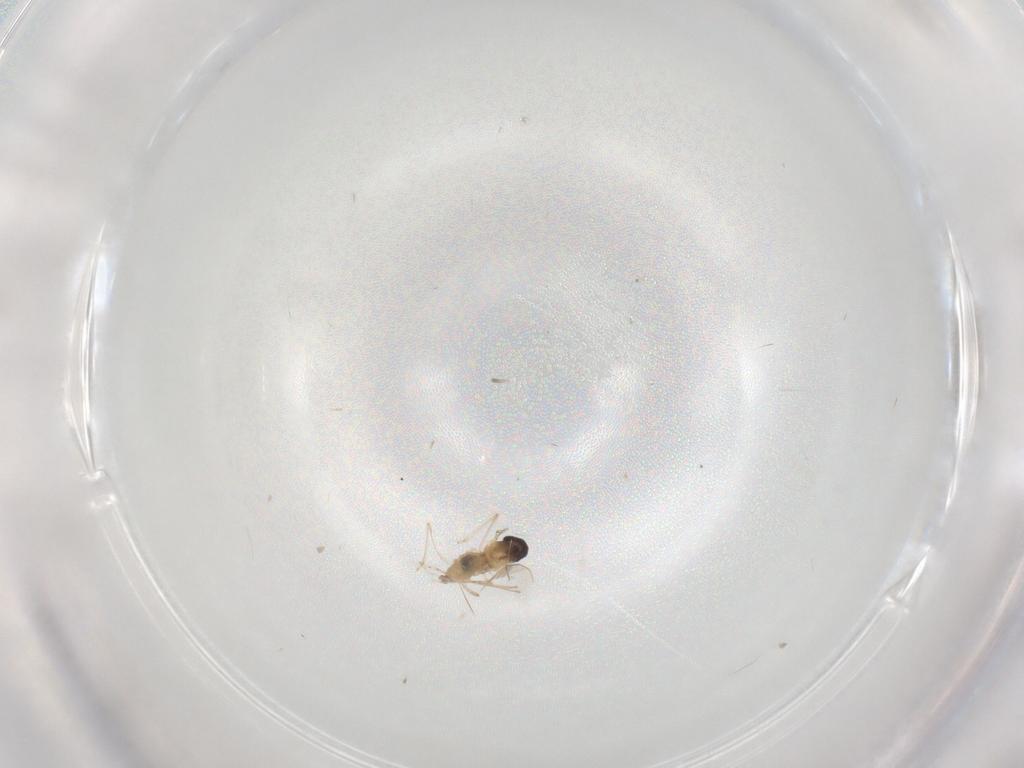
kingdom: Animalia
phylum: Arthropoda
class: Insecta
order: Diptera
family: Cecidomyiidae
